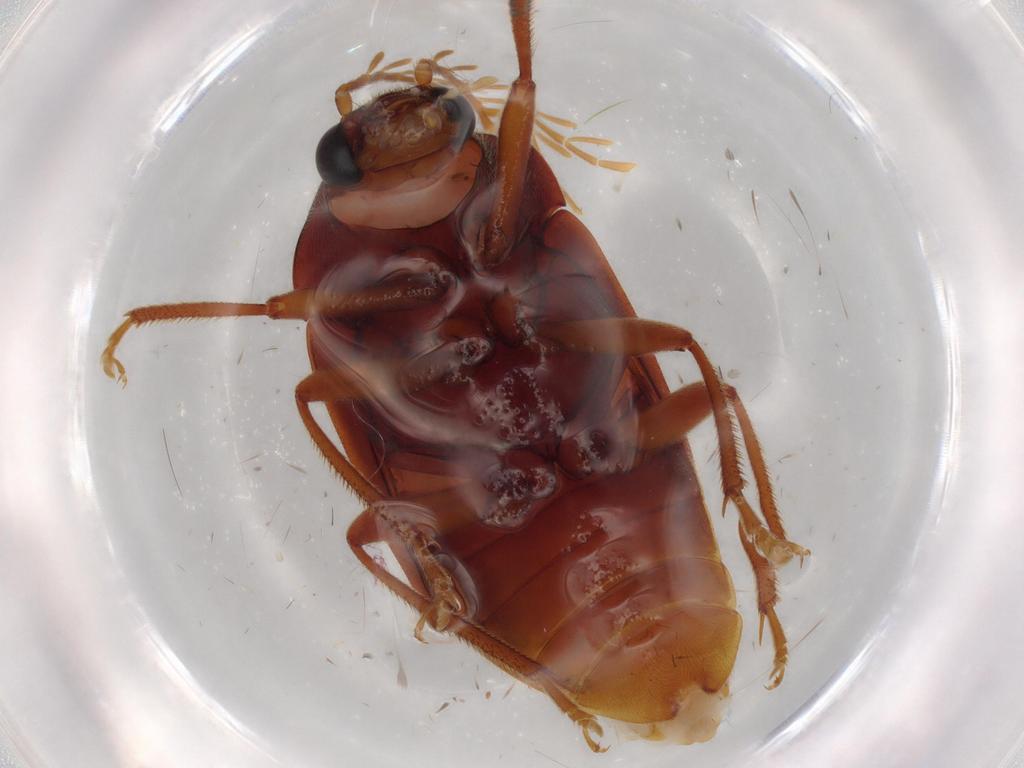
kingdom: Animalia
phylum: Arthropoda
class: Insecta
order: Coleoptera
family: Ptilodactylidae
